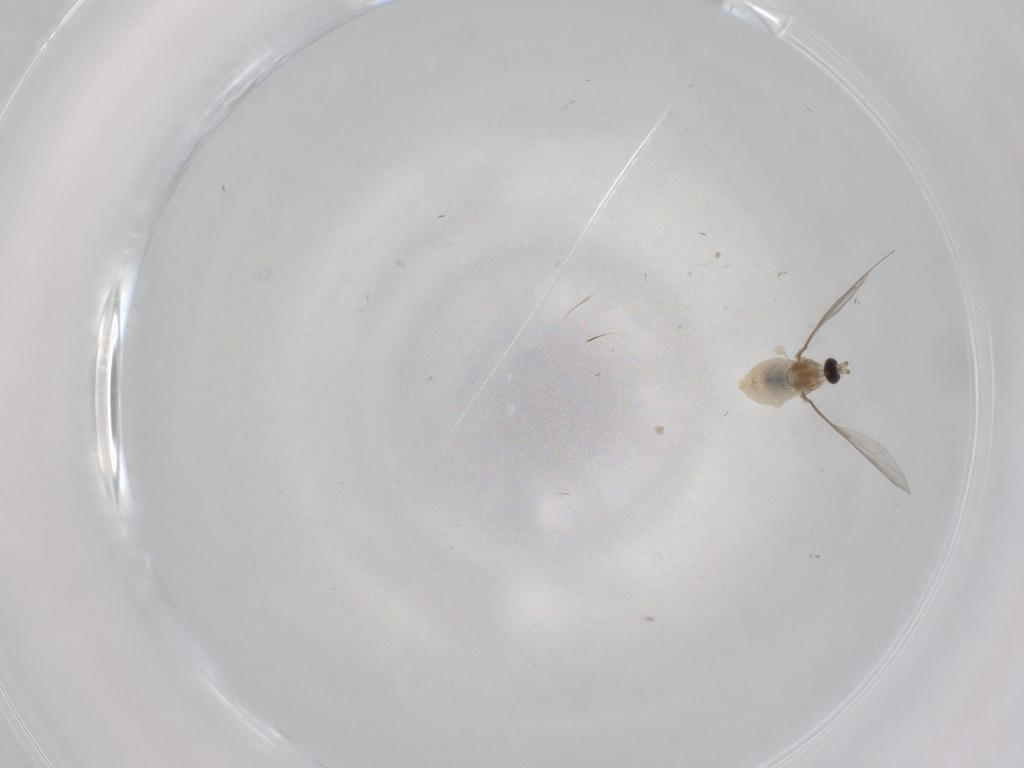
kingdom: Animalia
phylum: Arthropoda
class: Insecta
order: Diptera
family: Cecidomyiidae
